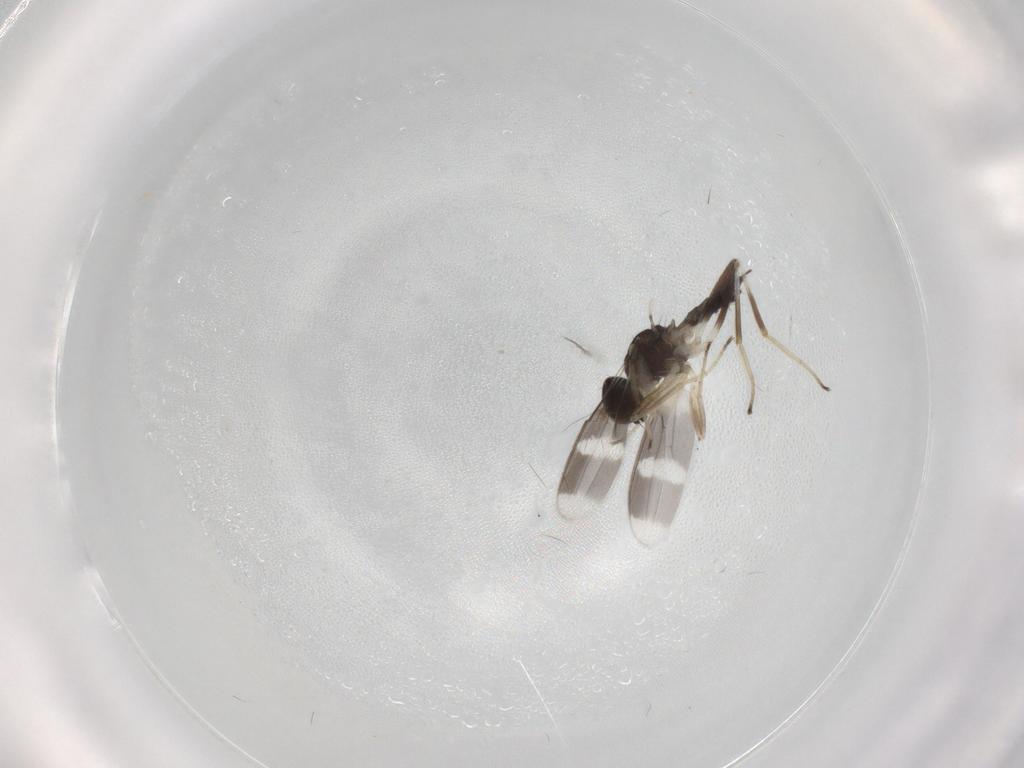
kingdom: Animalia
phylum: Arthropoda
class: Insecta
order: Diptera
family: Hybotidae
